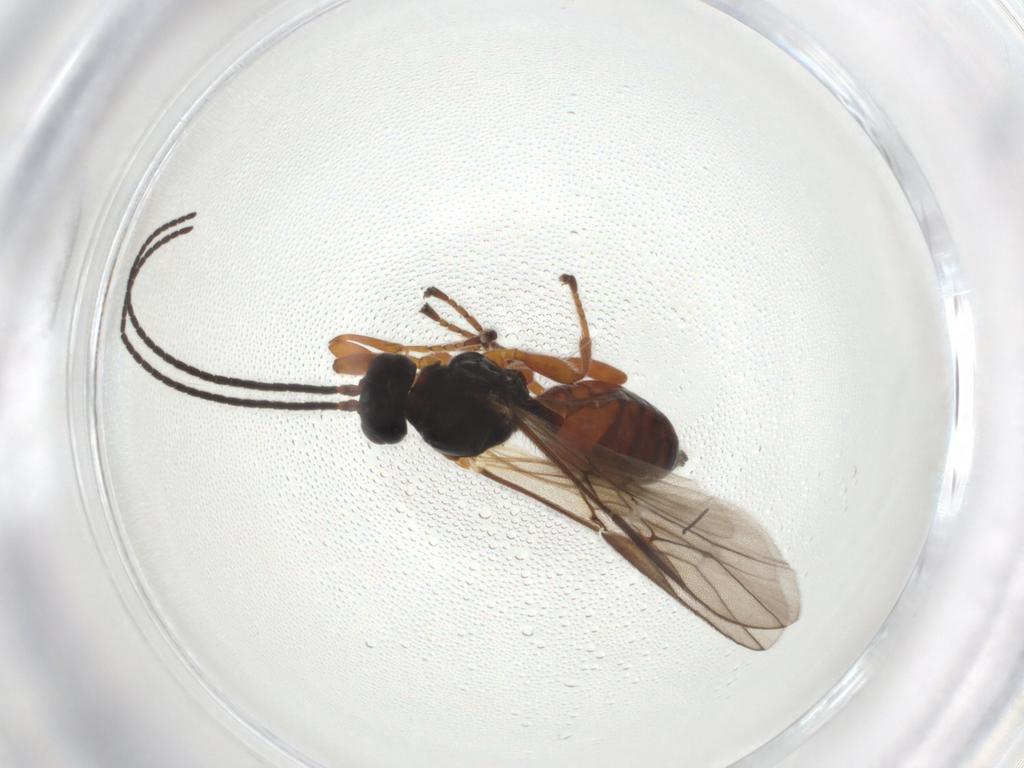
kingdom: Animalia
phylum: Arthropoda
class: Insecta
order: Hymenoptera
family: Braconidae
